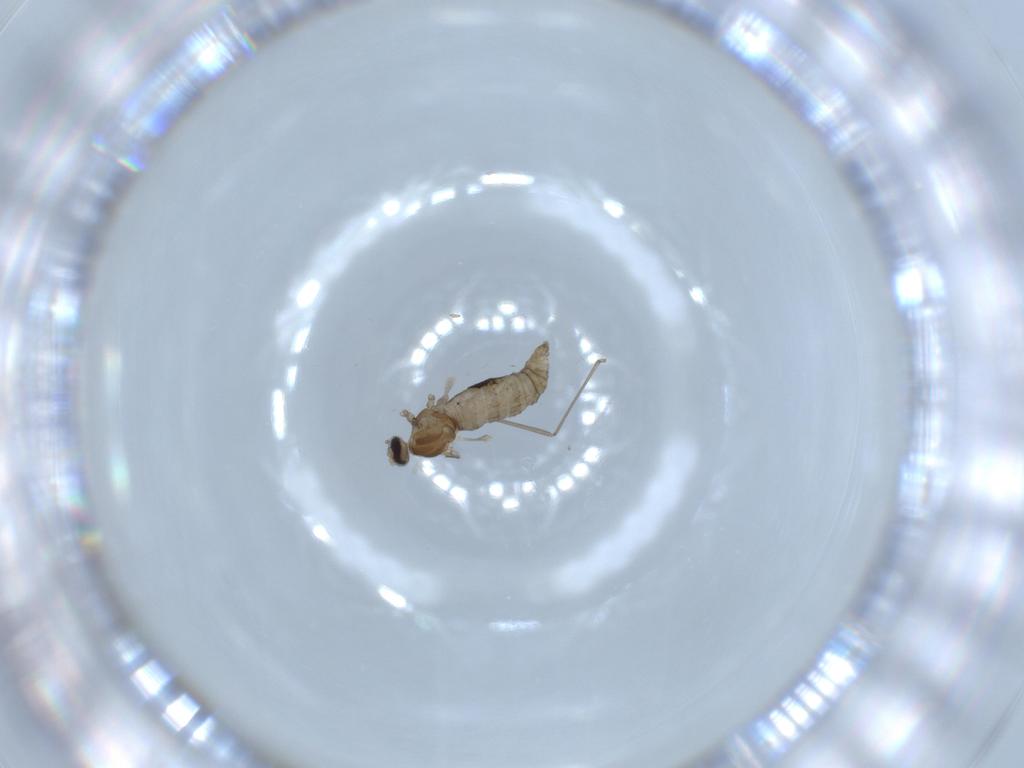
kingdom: Animalia
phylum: Arthropoda
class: Insecta
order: Diptera
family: Cecidomyiidae
